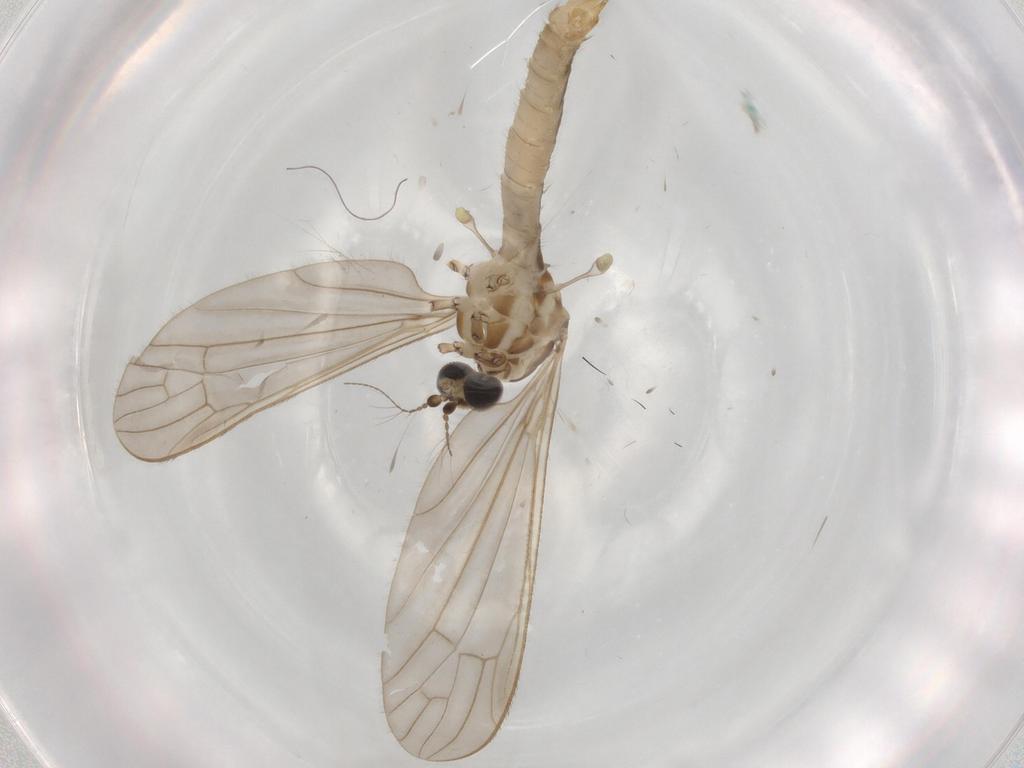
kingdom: Animalia
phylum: Arthropoda
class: Insecta
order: Diptera
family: Limoniidae
